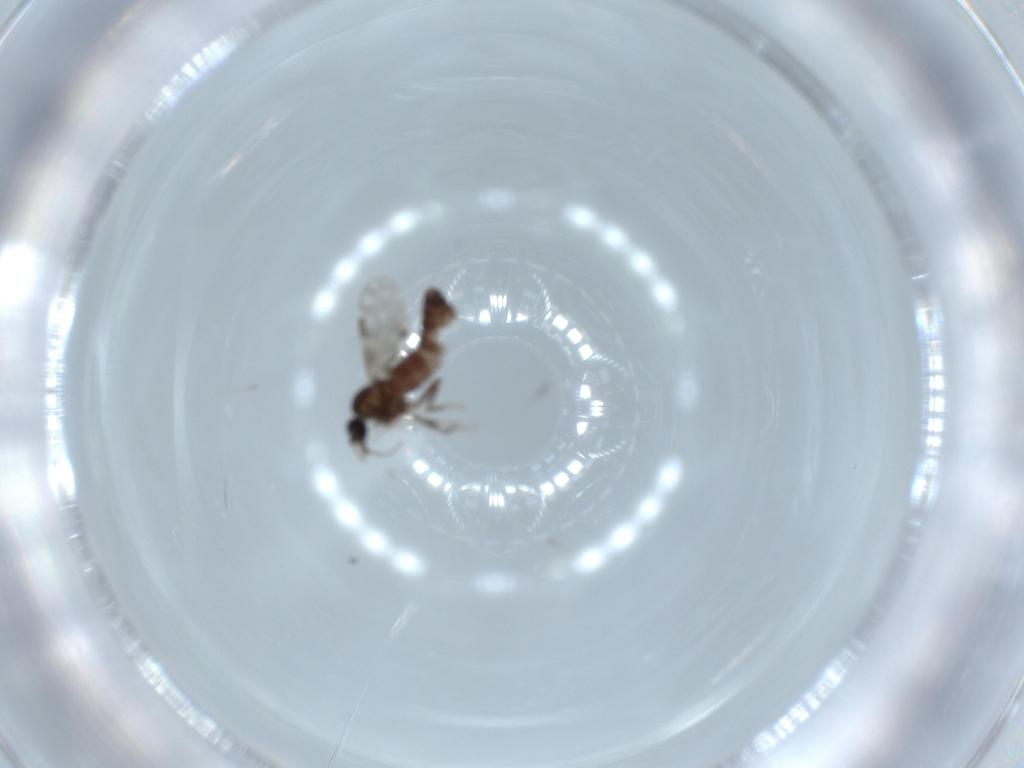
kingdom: Animalia
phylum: Arthropoda
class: Insecta
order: Diptera
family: Ceratopogonidae
